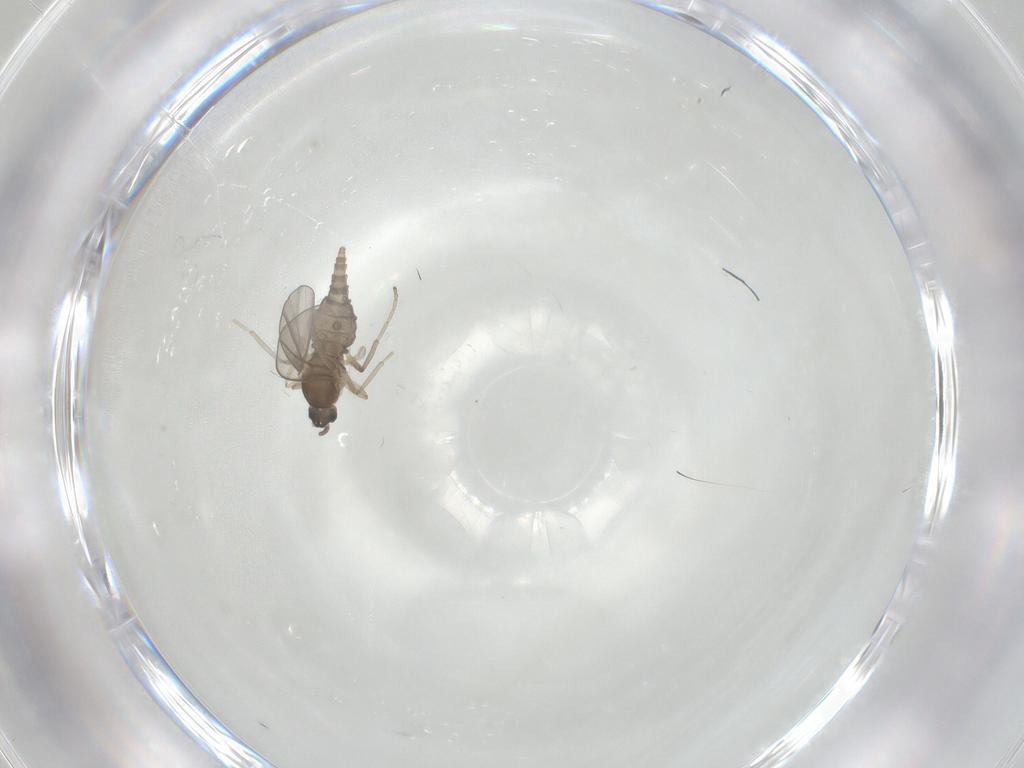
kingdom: Animalia
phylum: Arthropoda
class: Insecta
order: Diptera
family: Cecidomyiidae
